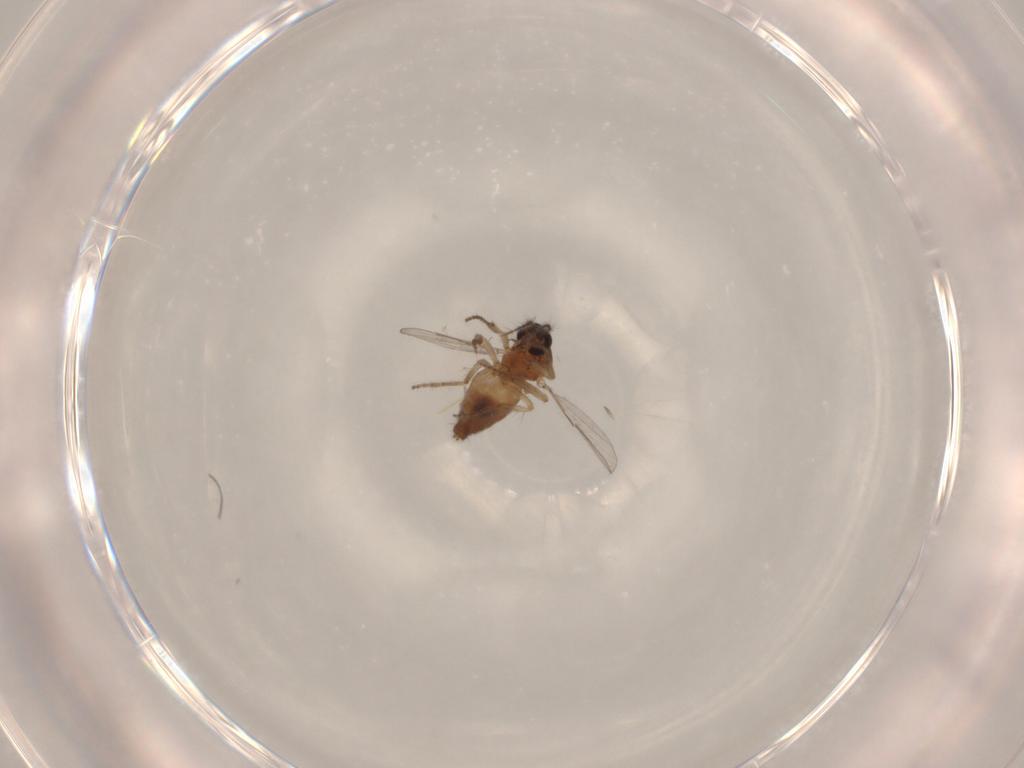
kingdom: Animalia
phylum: Arthropoda
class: Insecta
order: Diptera
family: Ceratopogonidae
